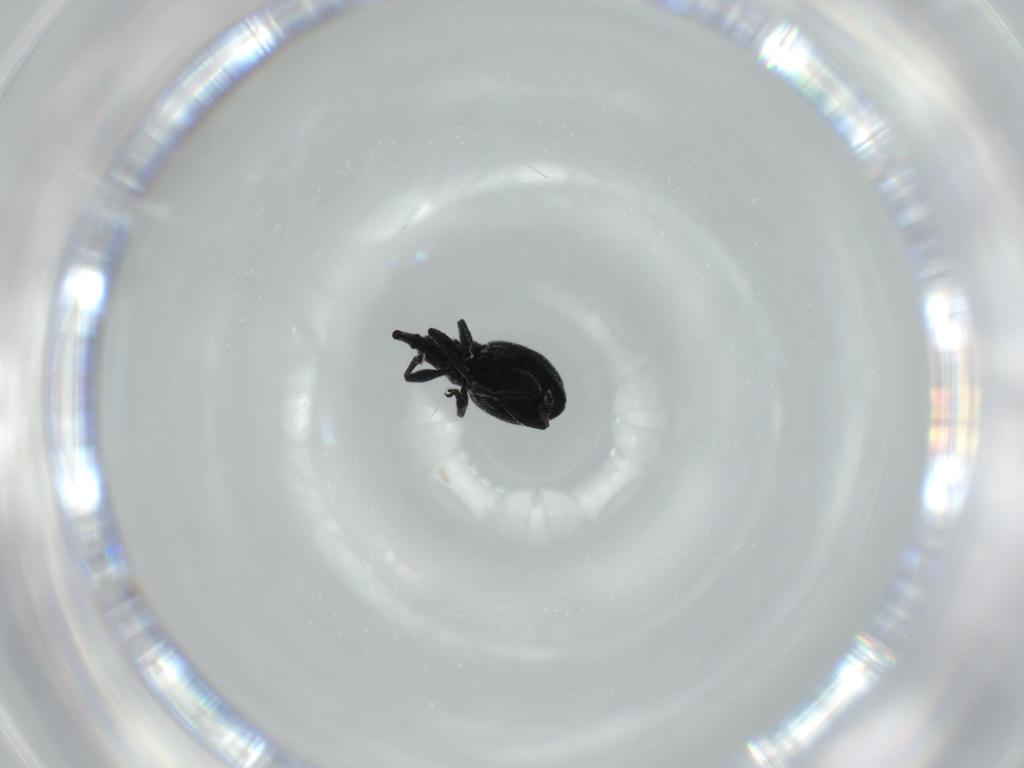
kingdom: Animalia
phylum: Arthropoda
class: Insecta
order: Coleoptera
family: Brentidae
